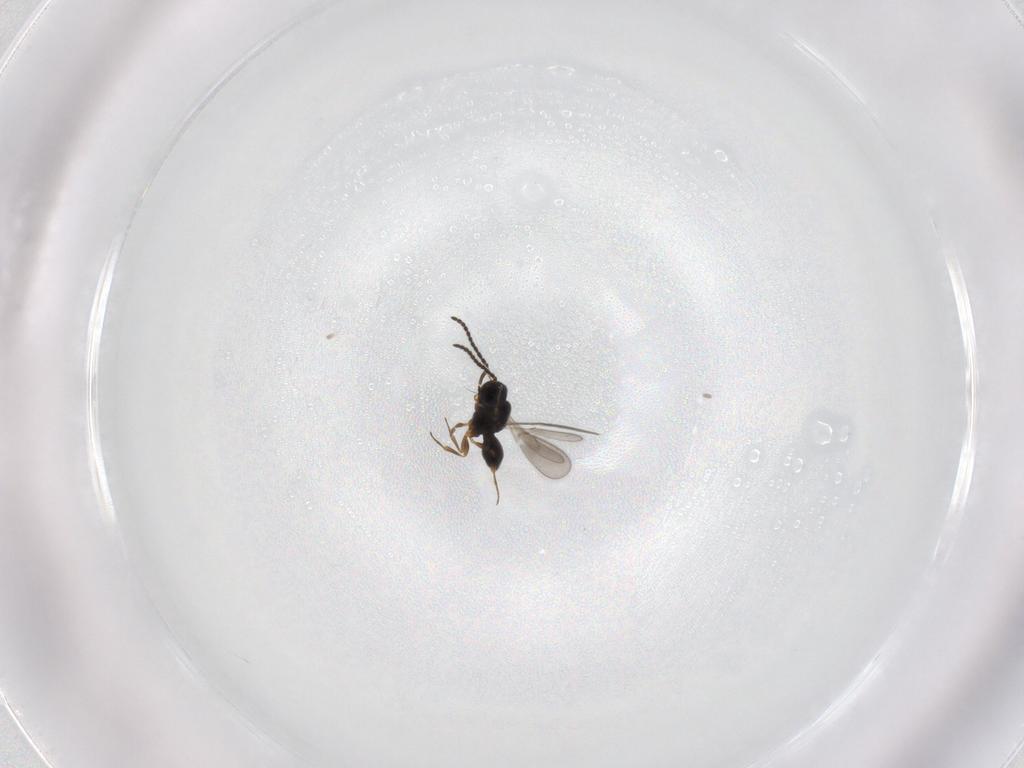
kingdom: Animalia
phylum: Arthropoda
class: Insecta
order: Hymenoptera
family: Scelionidae
